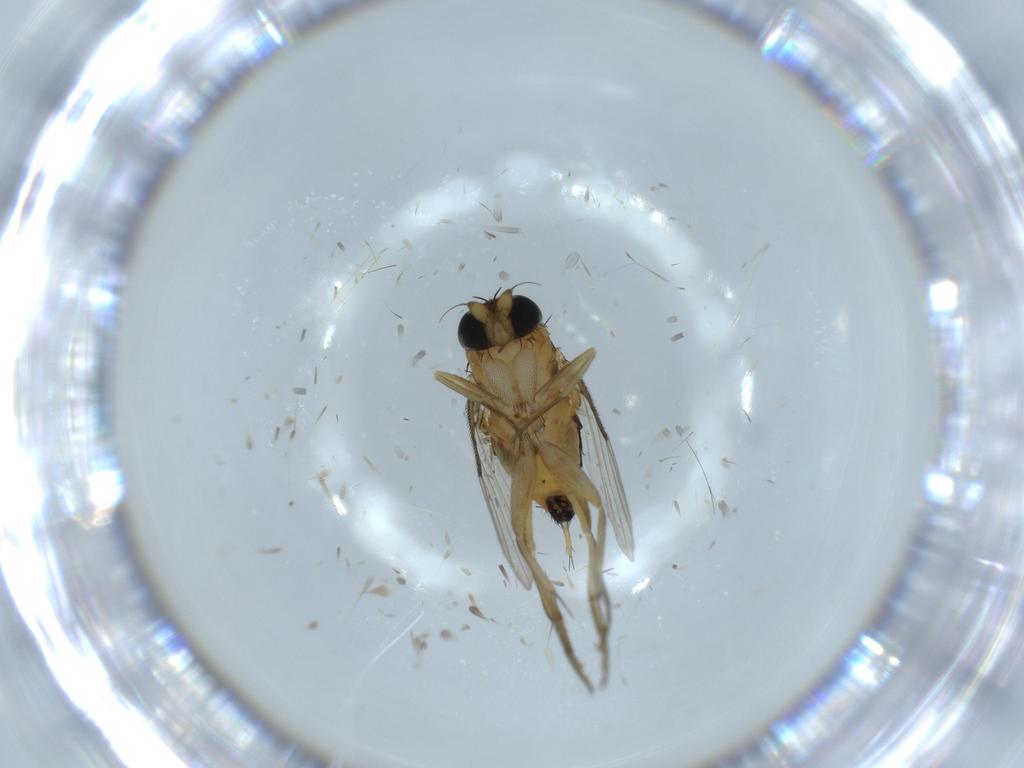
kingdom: Animalia
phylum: Arthropoda
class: Insecta
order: Diptera
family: Phoridae
